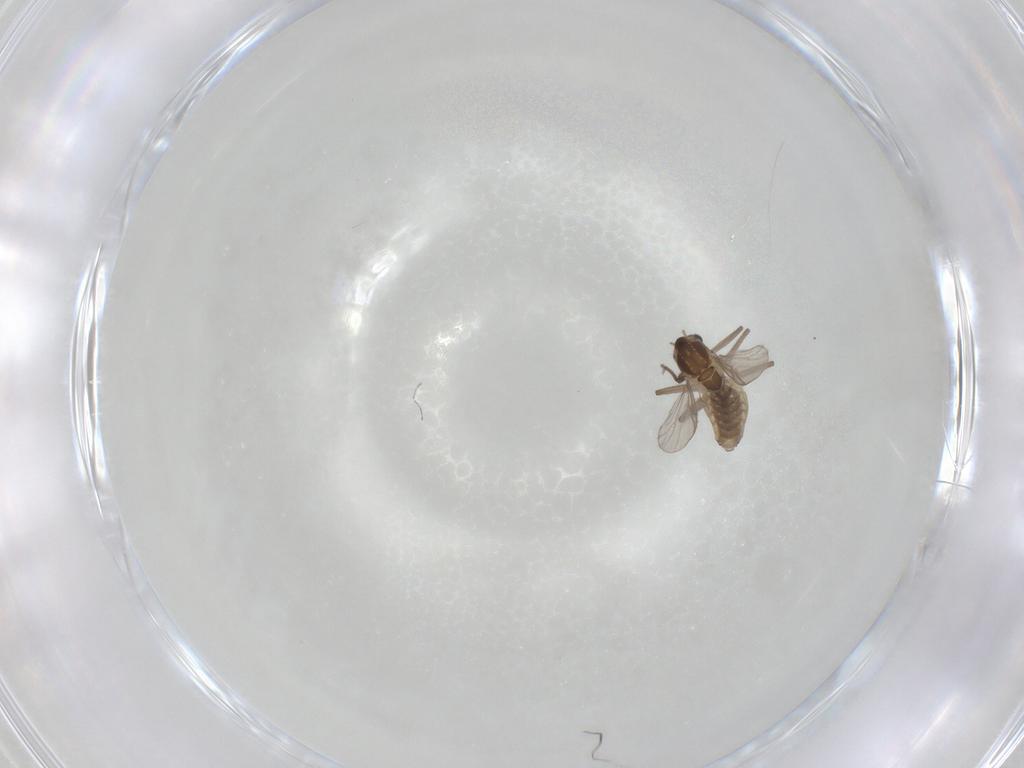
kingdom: Animalia
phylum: Arthropoda
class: Insecta
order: Diptera
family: Chironomidae
